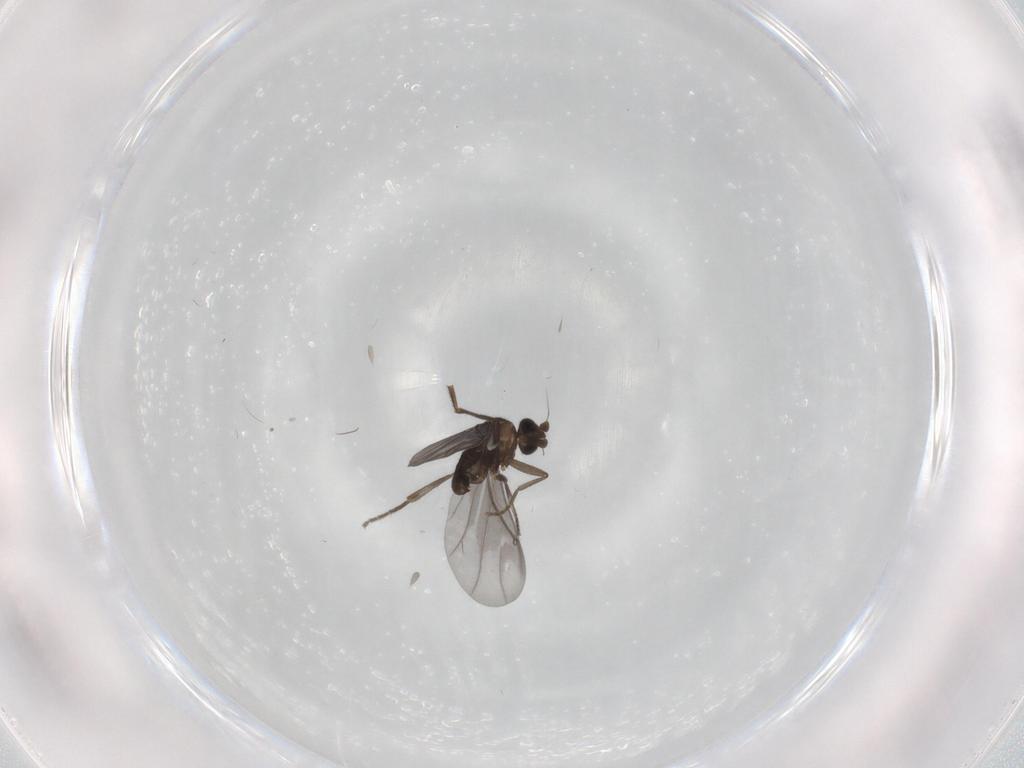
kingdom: Animalia
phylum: Arthropoda
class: Insecta
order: Diptera
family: Phoridae
